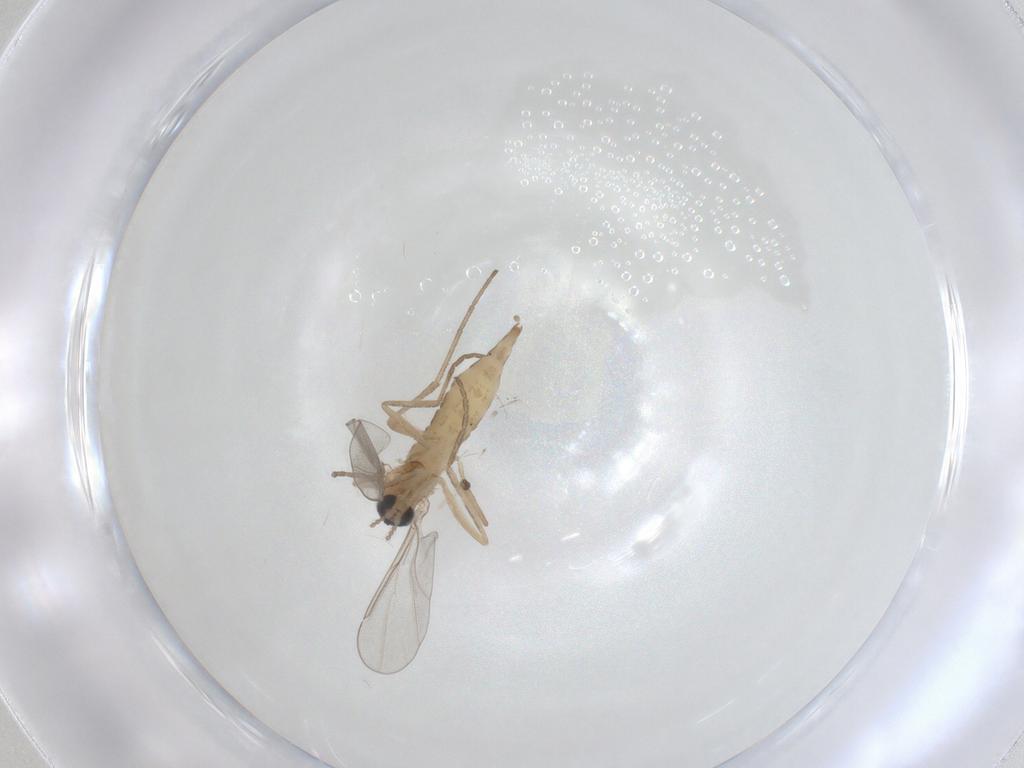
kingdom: Animalia
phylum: Arthropoda
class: Insecta
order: Diptera
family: Cecidomyiidae
